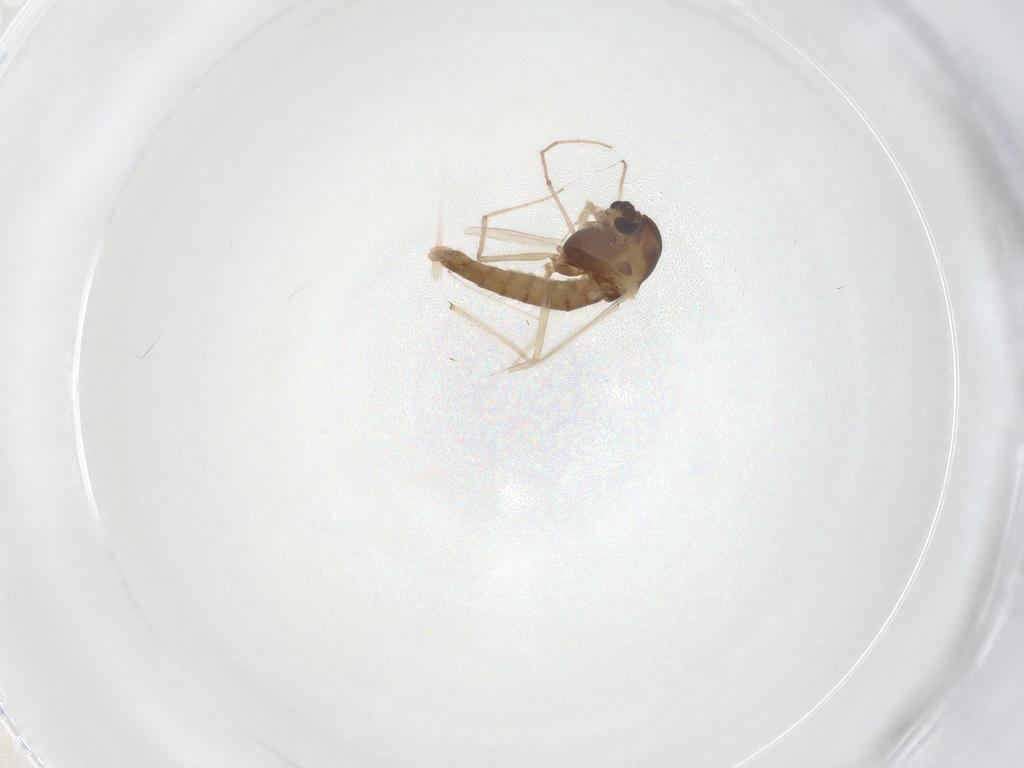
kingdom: Animalia
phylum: Arthropoda
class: Insecta
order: Diptera
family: Chironomidae
